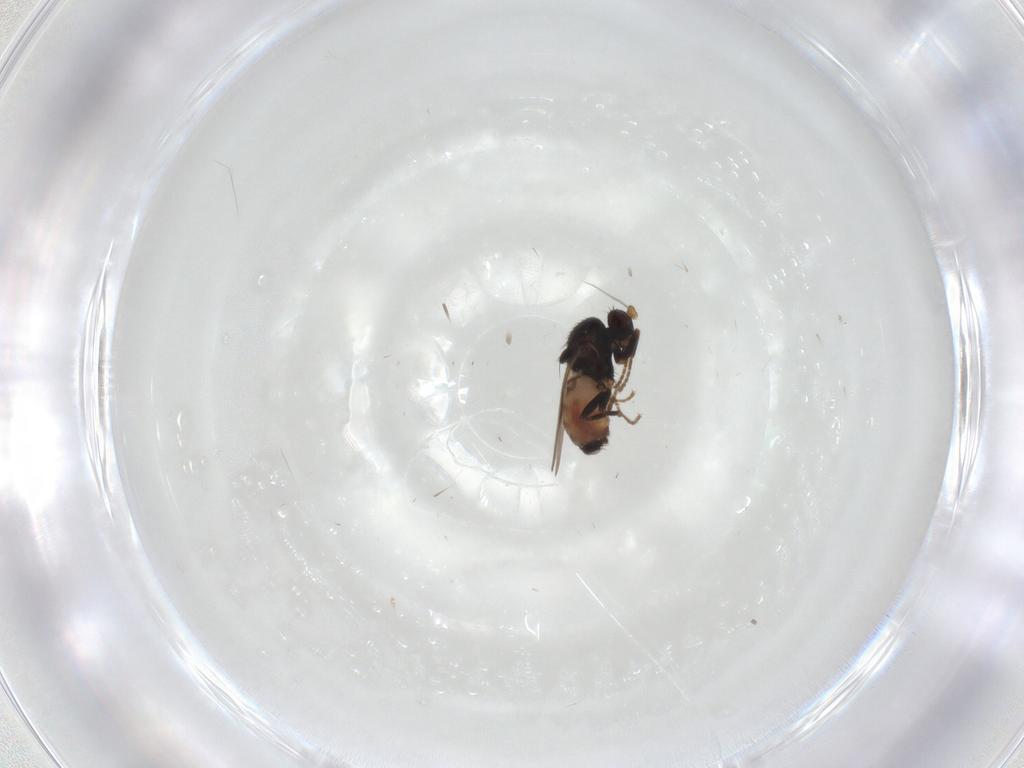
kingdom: Animalia
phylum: Arthropoda
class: Insecta
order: Diptera
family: Sphaeroceridae
